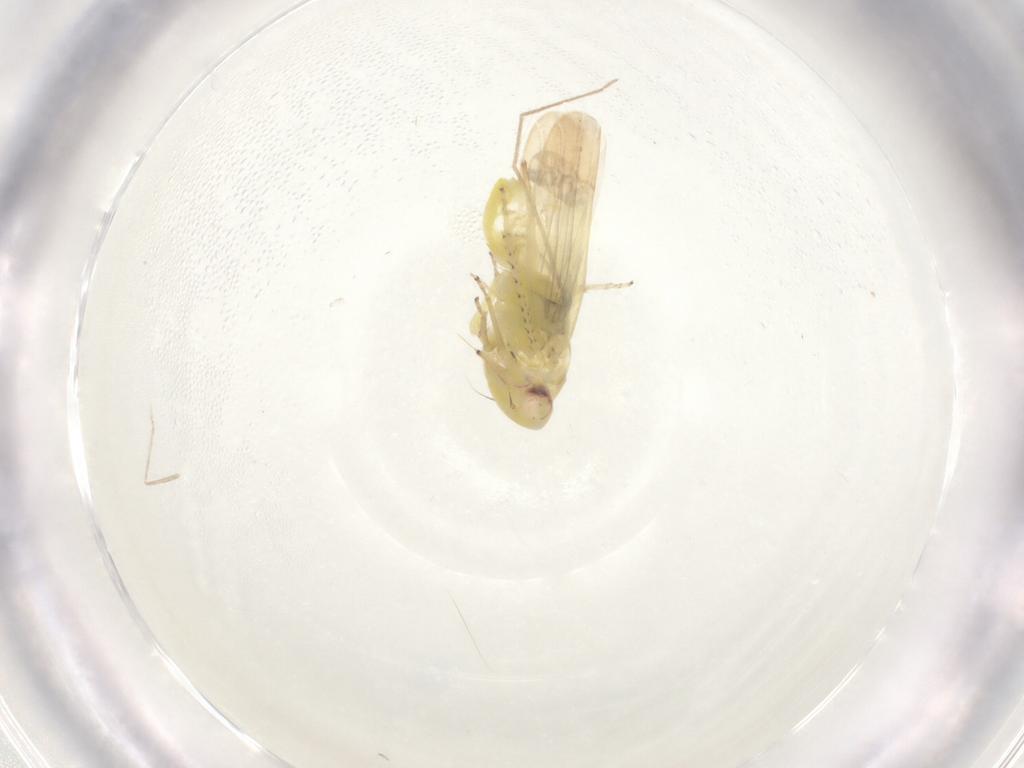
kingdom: Animalia
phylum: Arthropoda
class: Insecta
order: Hemiptera
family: Cicadellidae
